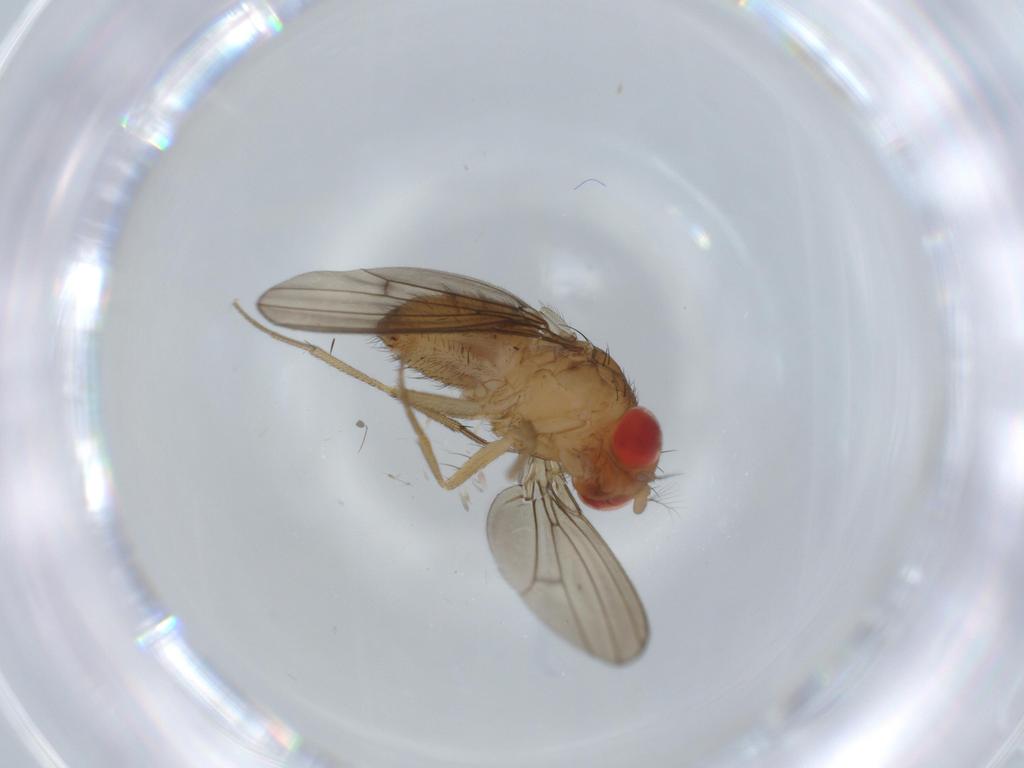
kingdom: Animalia
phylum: Arthropoda
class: Insecta
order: Diptera
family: Drosophilidae
